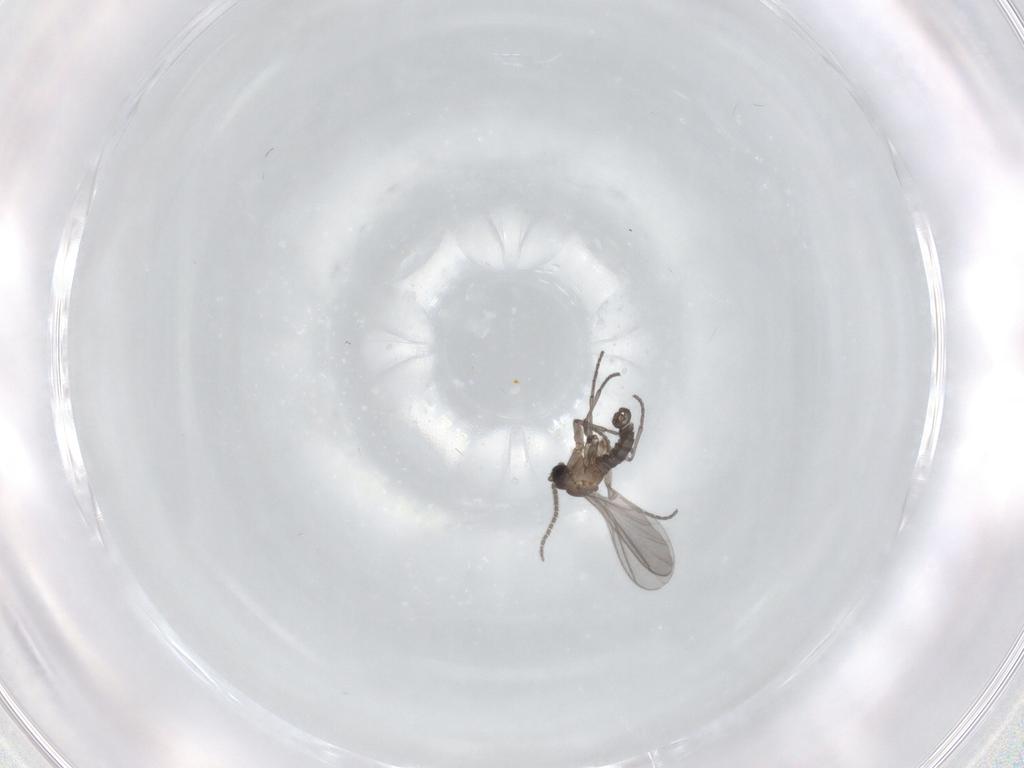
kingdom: Animalia
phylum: Arthropoda
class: Insecta
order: Diptera
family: Sciaridae
